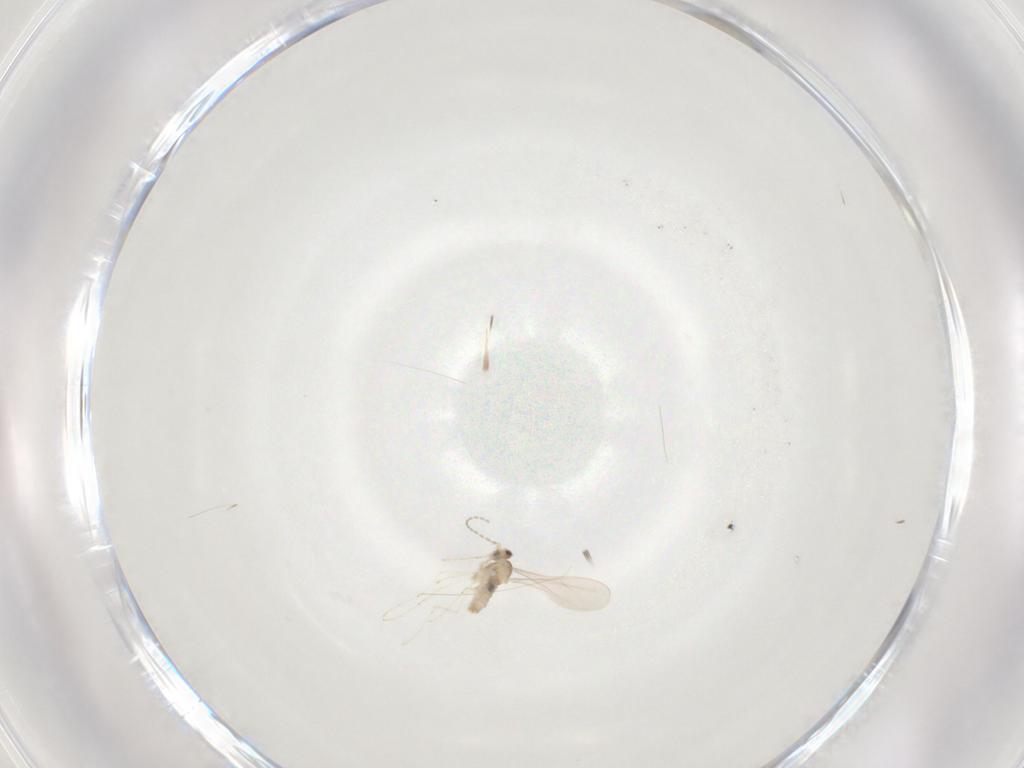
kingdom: Animalia
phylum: Arthropoda
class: Insecta
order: Diptera
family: Cecidomyiidae
